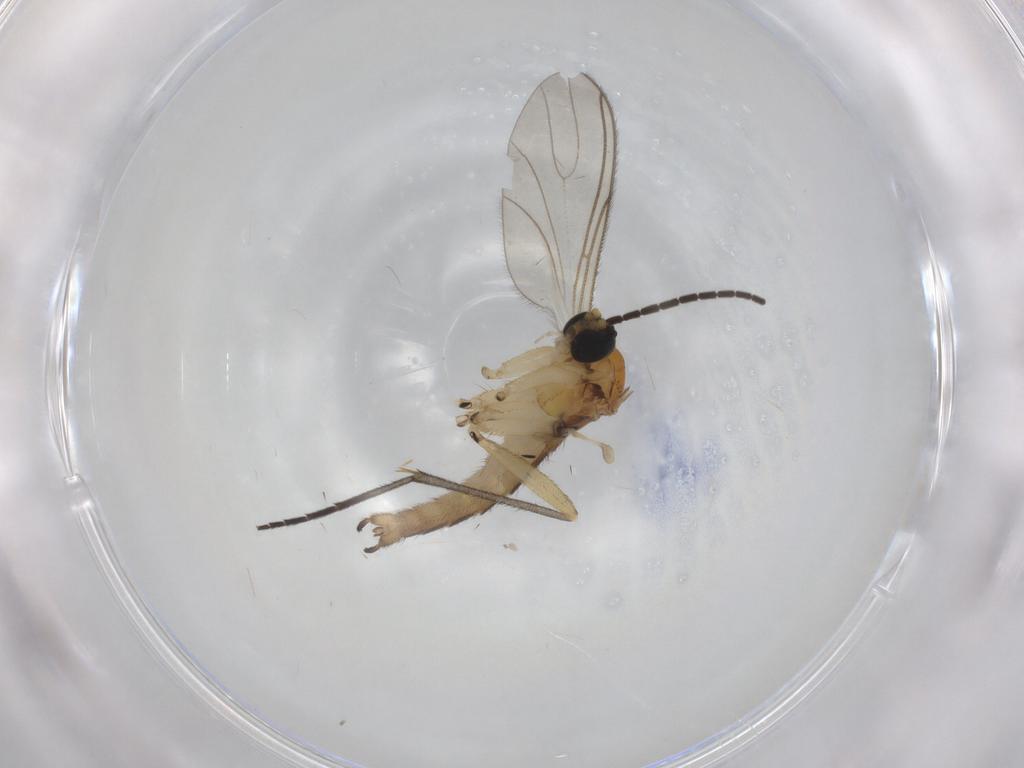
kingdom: Animalia
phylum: Arthropoda
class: Insecta
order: Diptera
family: Sciaridae
